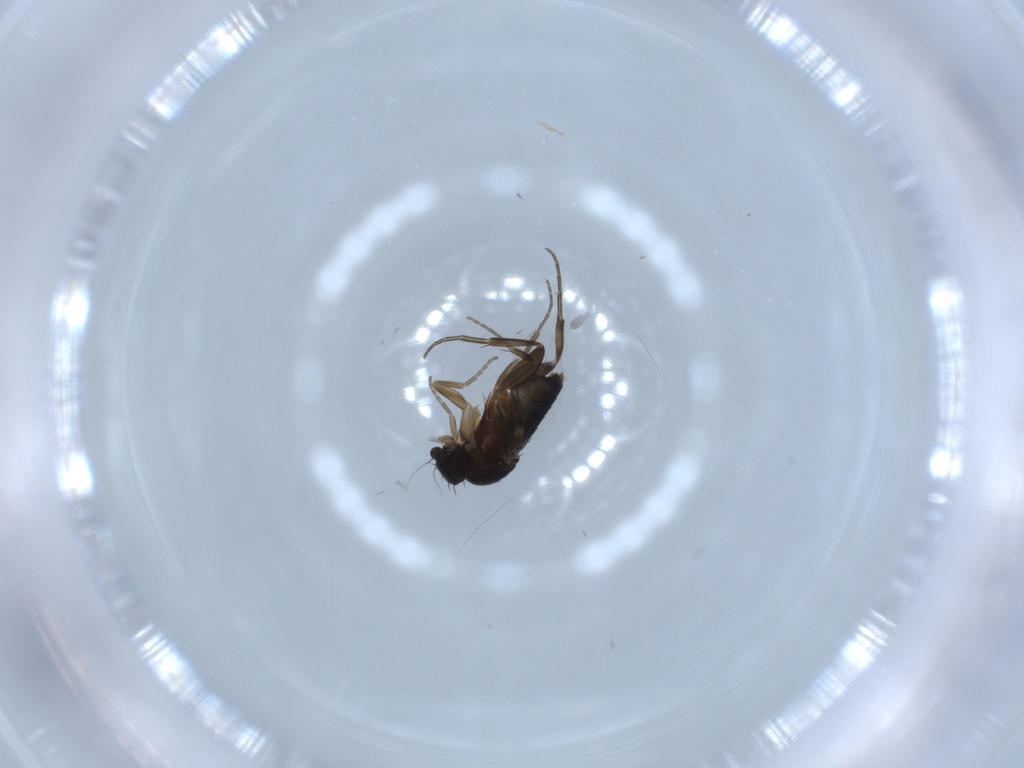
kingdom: Animalia
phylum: Arthropoda
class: Insecta
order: Diptera
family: Phoridae
